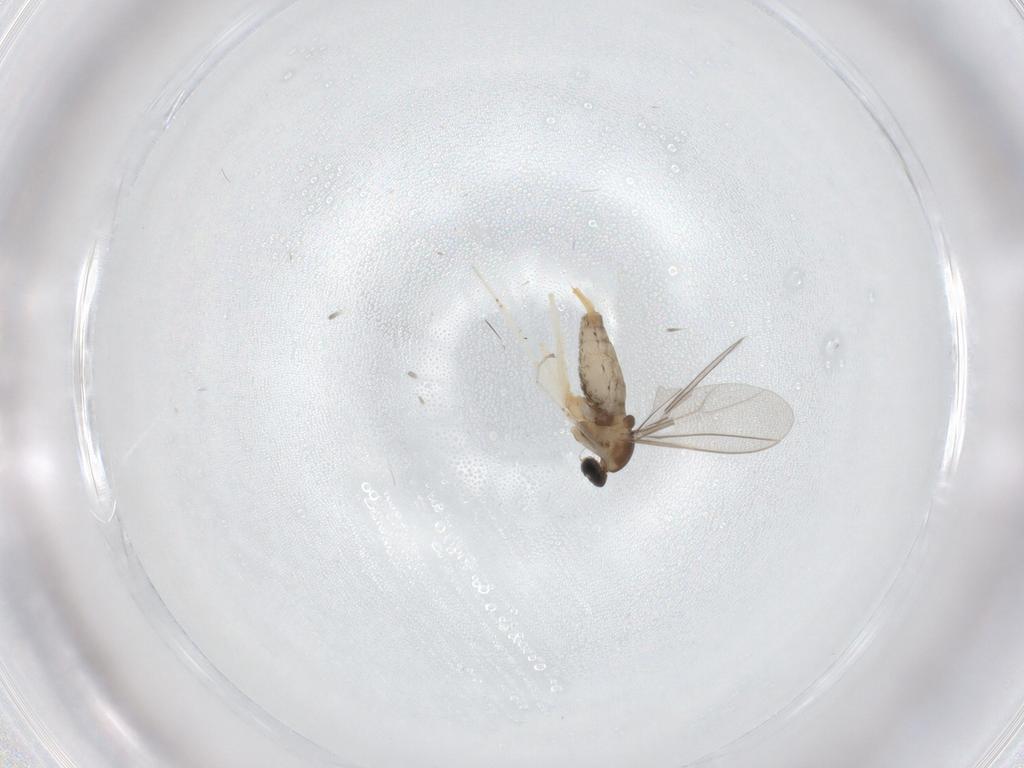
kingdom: Animalia
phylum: Arthropoda
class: Insecta
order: Diptera
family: Cecidomyiidae
